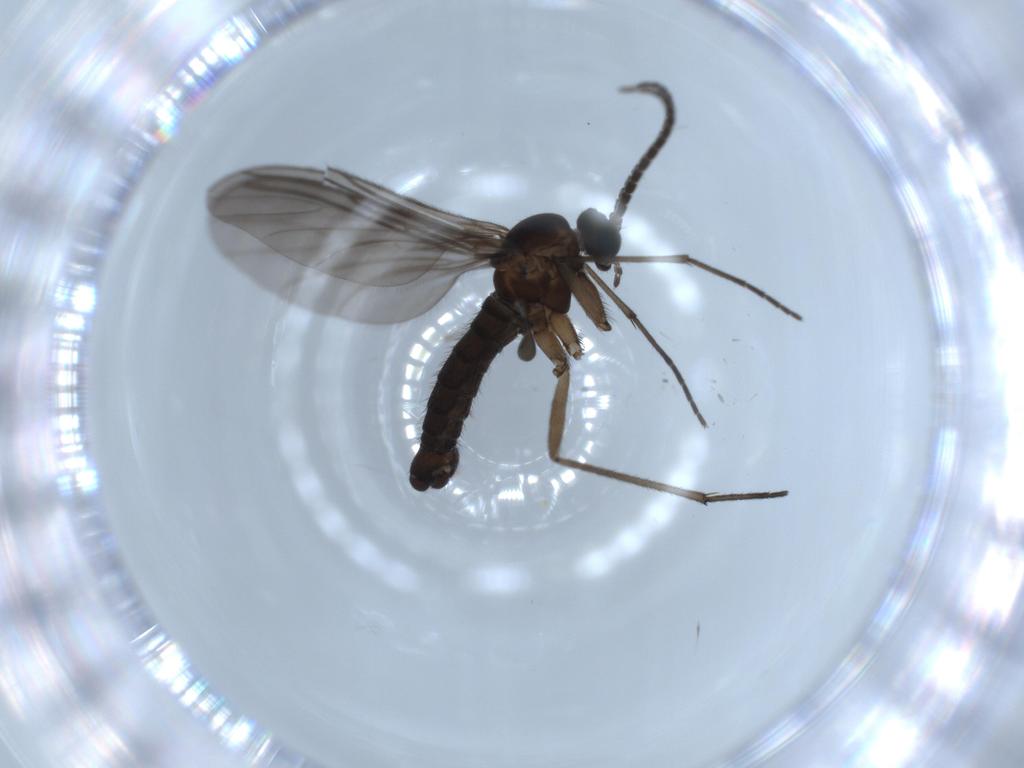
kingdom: Animalia
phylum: Arthropoda
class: Insecta
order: Diptera
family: Sciaridae
